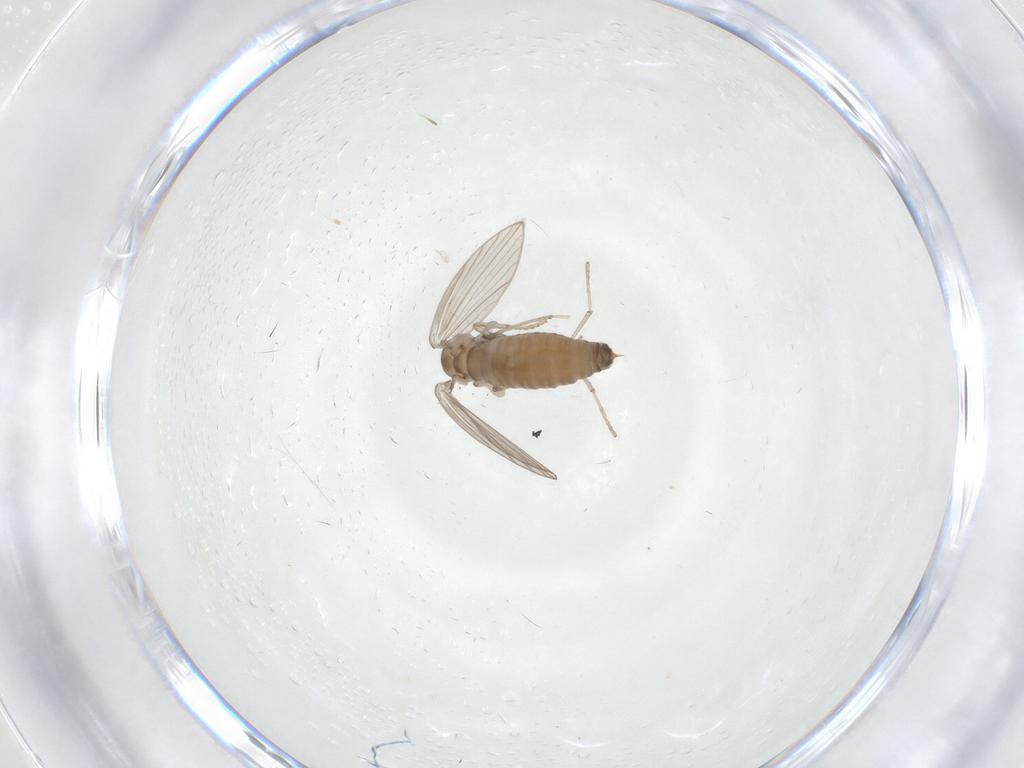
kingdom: Animalia
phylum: Arthropoda
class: Insecta
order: Diptera
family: Psychodidae
